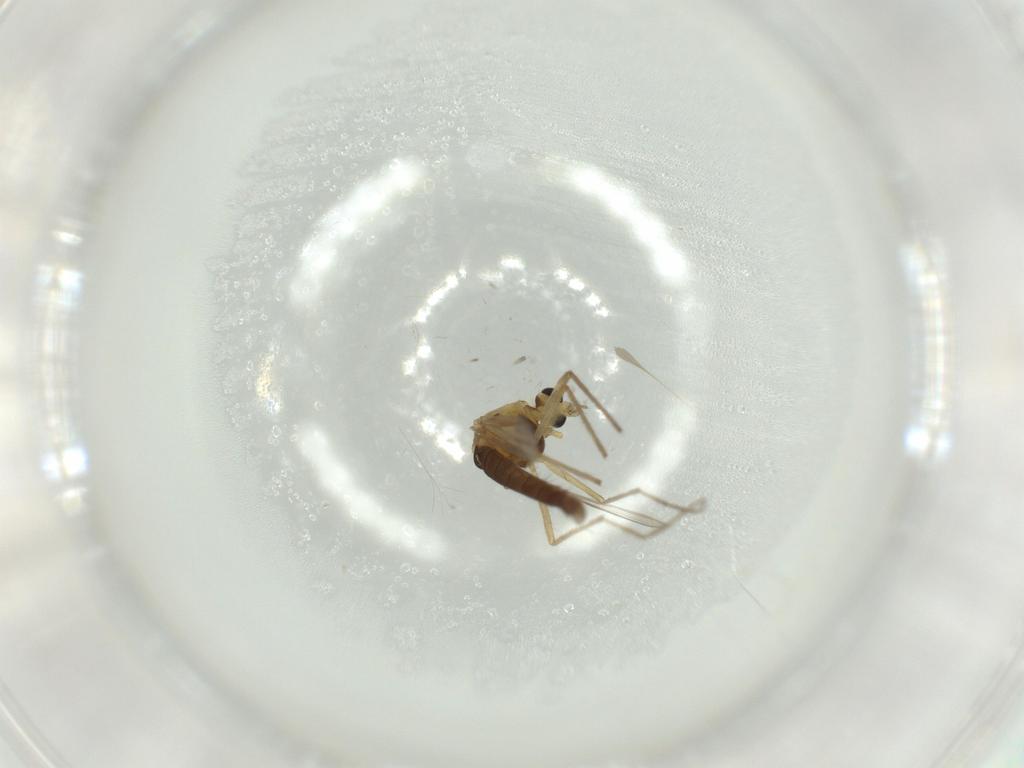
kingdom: Animalia
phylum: Arthropoda
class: Insecta
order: Diptera
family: Chironomidae
